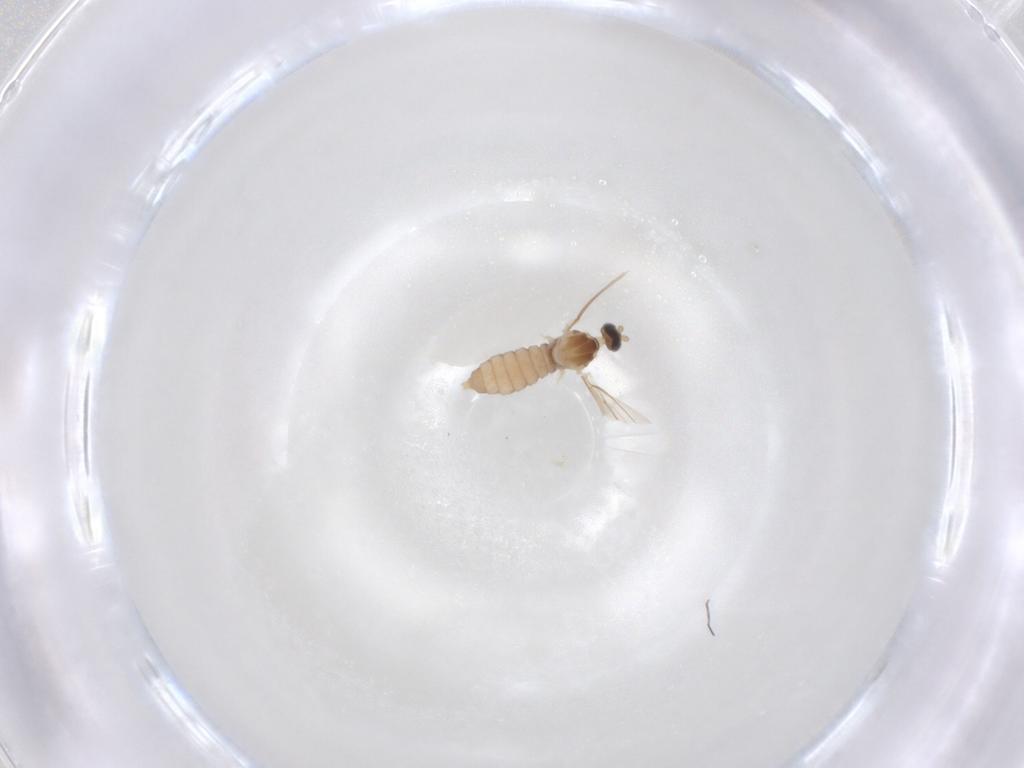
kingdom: Animalia
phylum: Arthropoda
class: Insecta
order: Diptera
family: Cecidomyiidae
